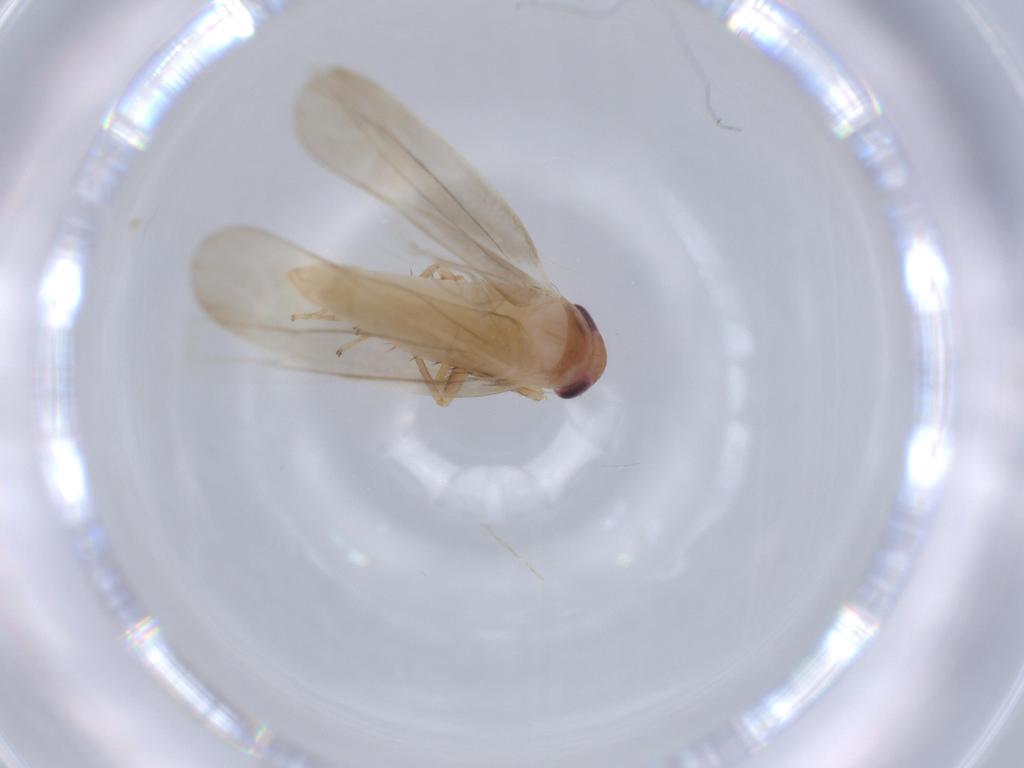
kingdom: Animalia
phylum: Arthropoda
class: Insecta
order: Hemiptera
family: Cicadellidae
